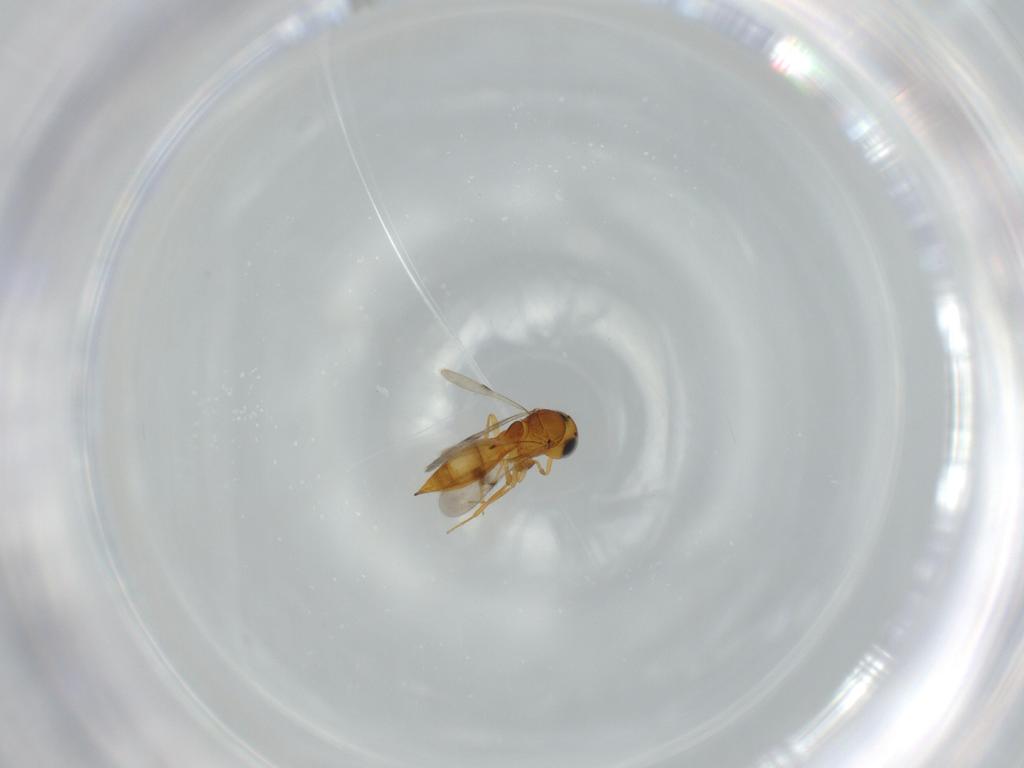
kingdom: Animalia
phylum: Arthropoda
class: Insecta
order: Hymenoptera
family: Scelionidae
